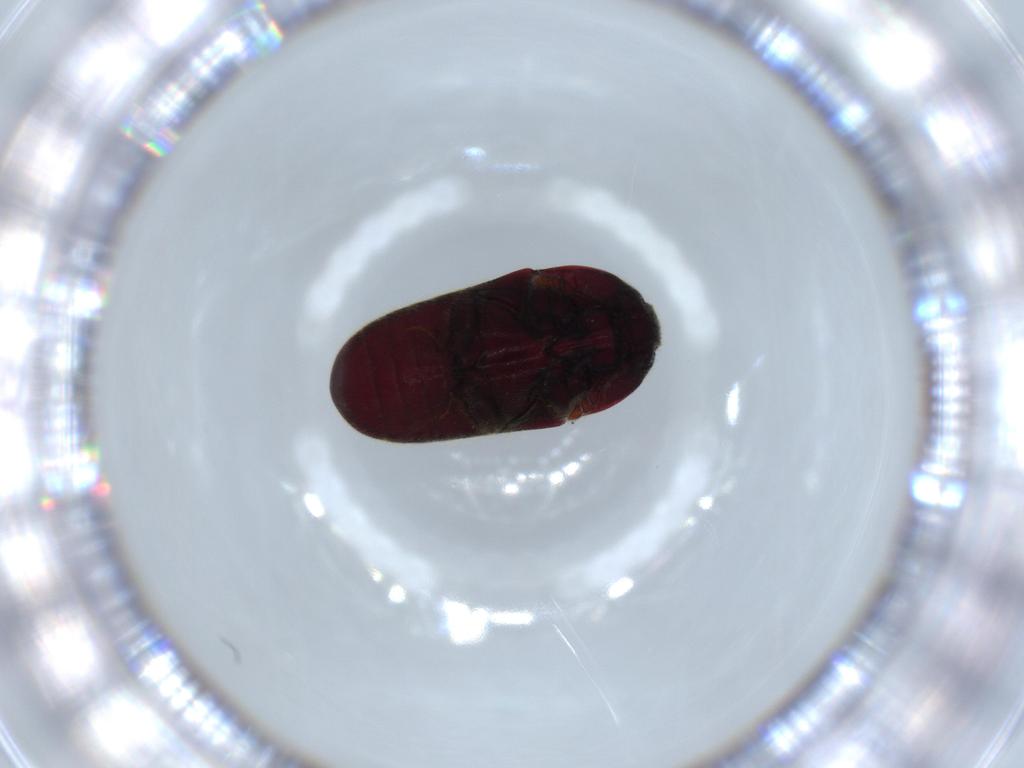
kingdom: Animalia
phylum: Arthropoda
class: Insecta
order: Coleoptera
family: Throscidae
